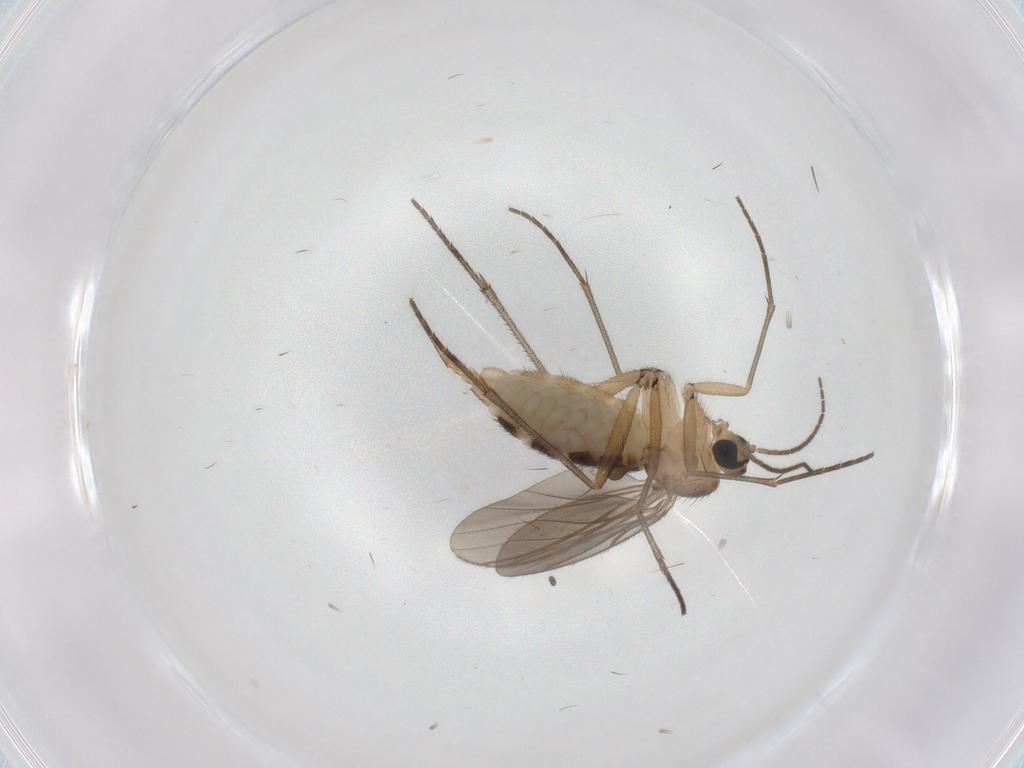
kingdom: Animalia
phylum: Arthropoda
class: Insecta
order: Diptera
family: Sciaridae
